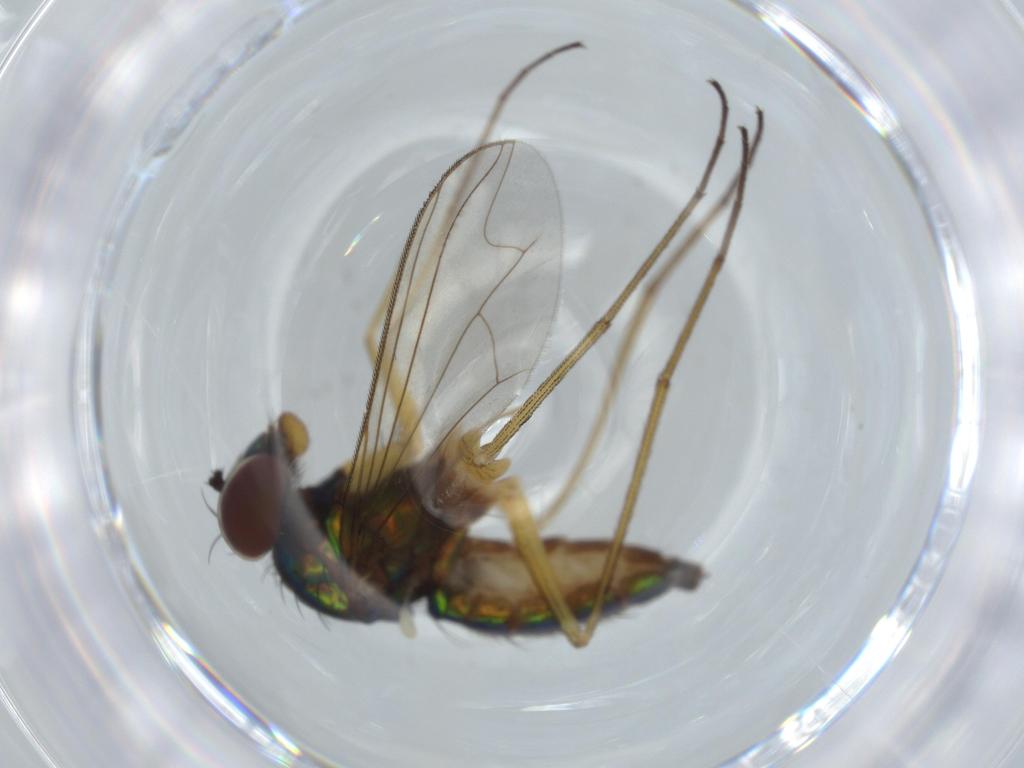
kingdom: Animalia
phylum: Arthropoda
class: Insecta
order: Diptera
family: Dolichopodidae
